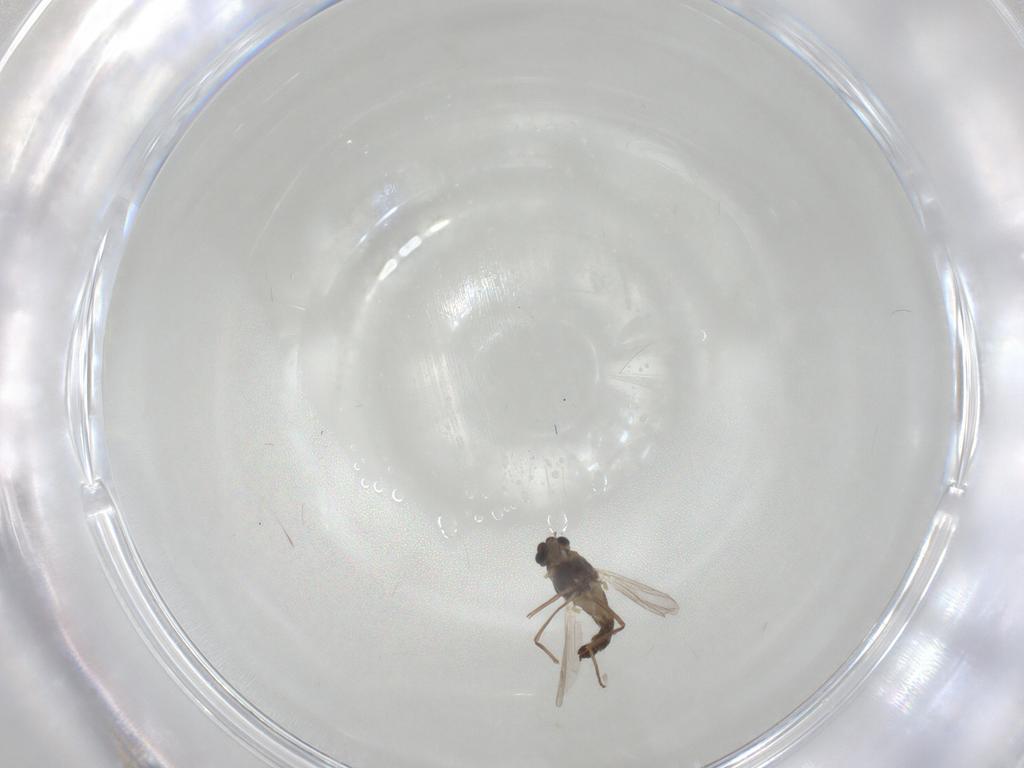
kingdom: Animalia
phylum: Arthropoda
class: Insecta
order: Diptera
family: Chironomidae
